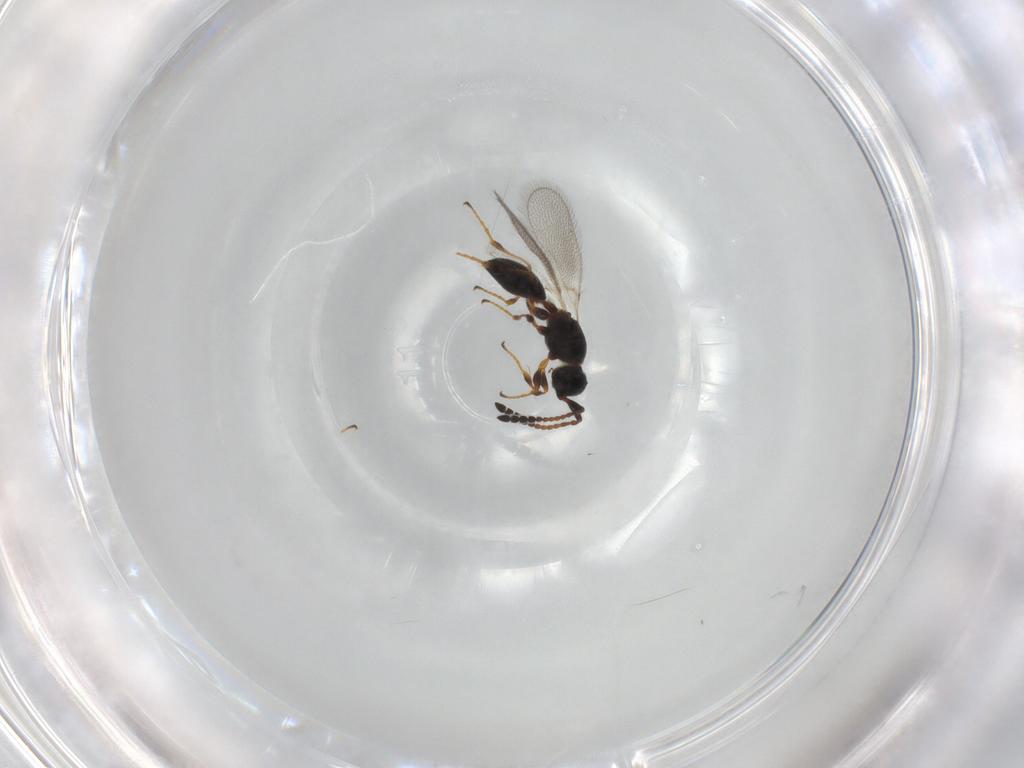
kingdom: Animalia
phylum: Arthropoda
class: Insecta
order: Hymenoptera
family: Diapriidae
